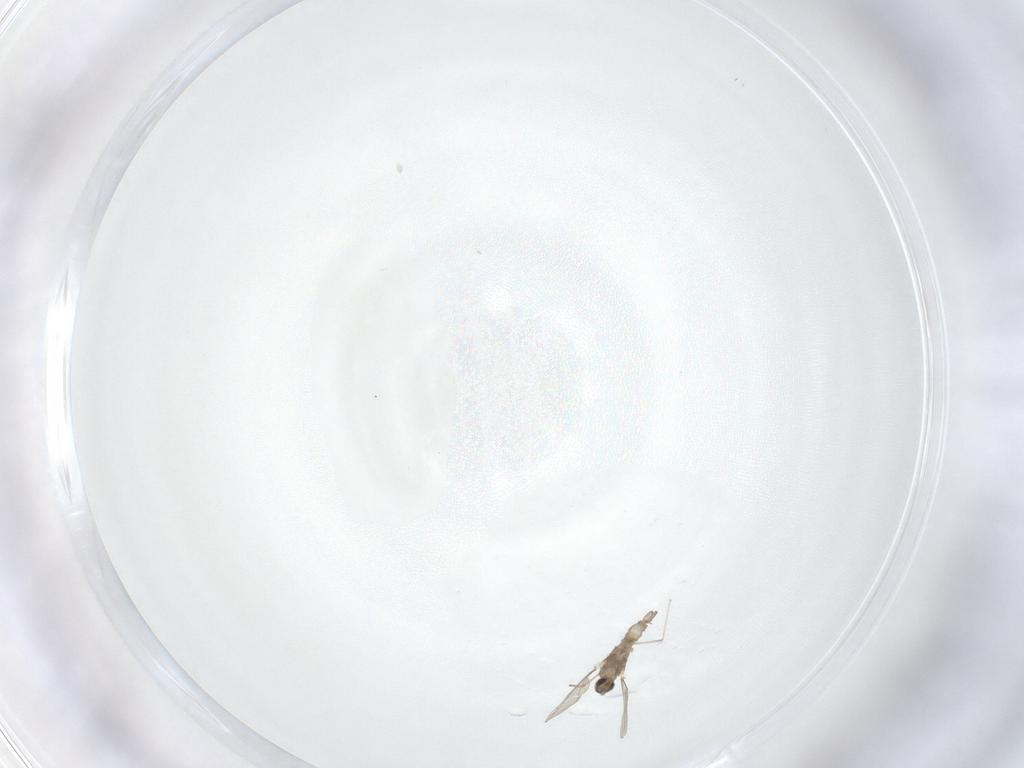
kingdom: Animalia
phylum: Arthropoda
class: Insecta
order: Diptera
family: Cecidomyiidae
